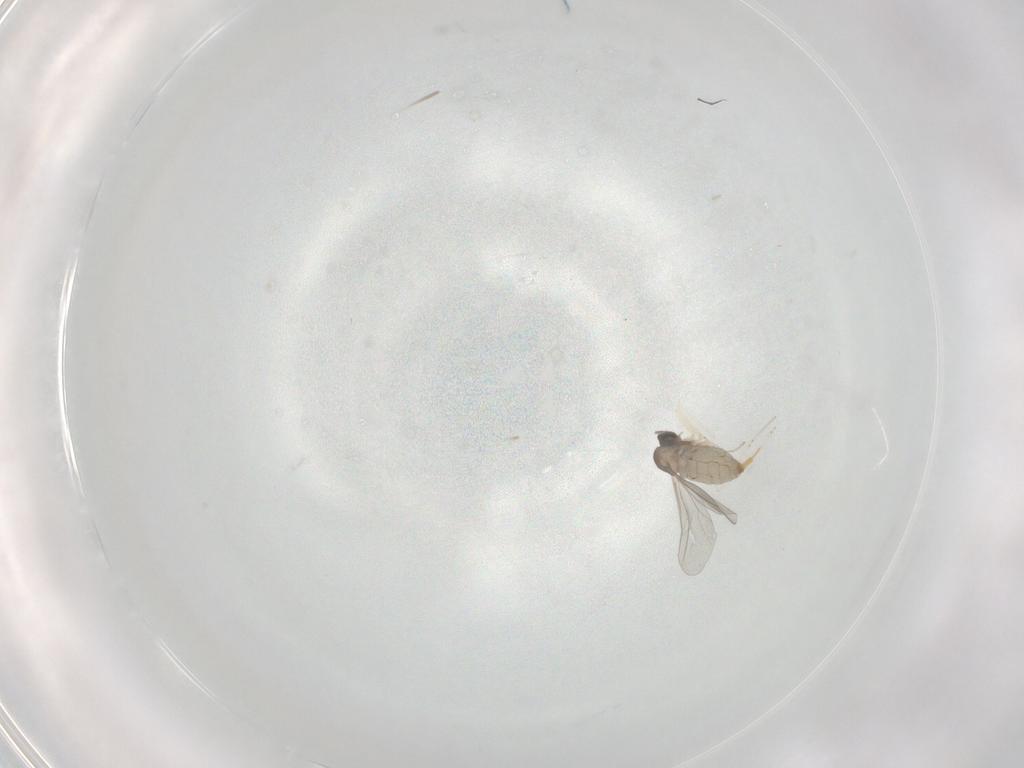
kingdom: Animalia
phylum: Arthropoda
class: Insecta
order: Diptera
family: Cecidomyiidae
